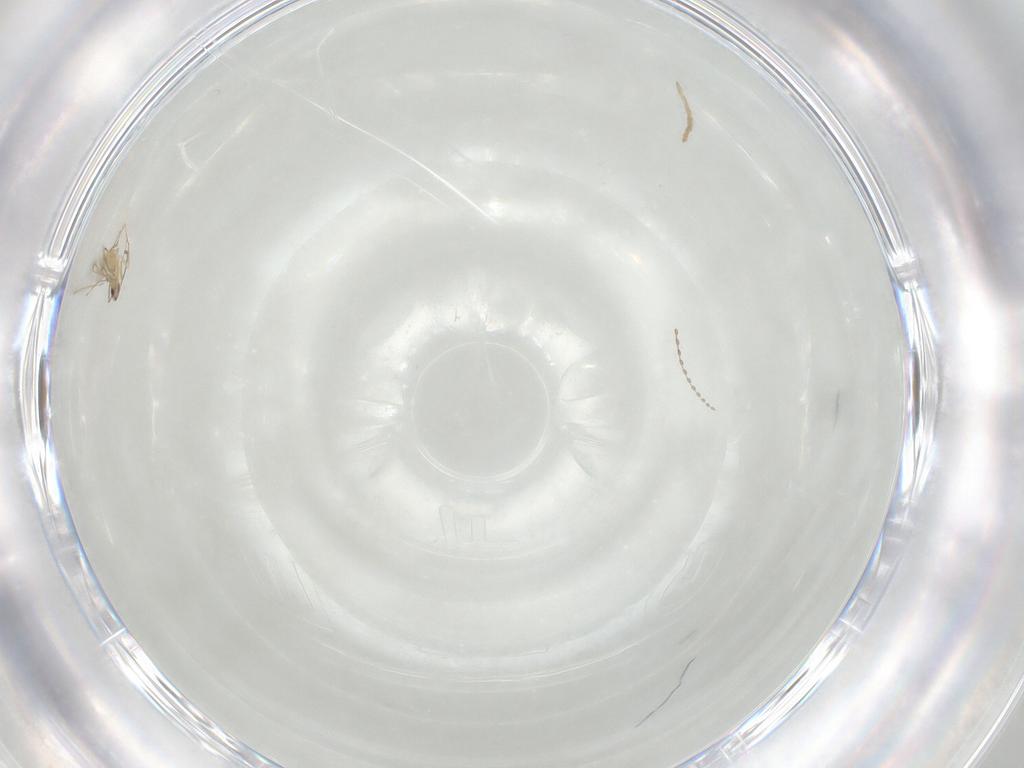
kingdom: Animalia
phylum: Arthropoda
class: Insecta
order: Hymenoptera
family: Mymaridae
